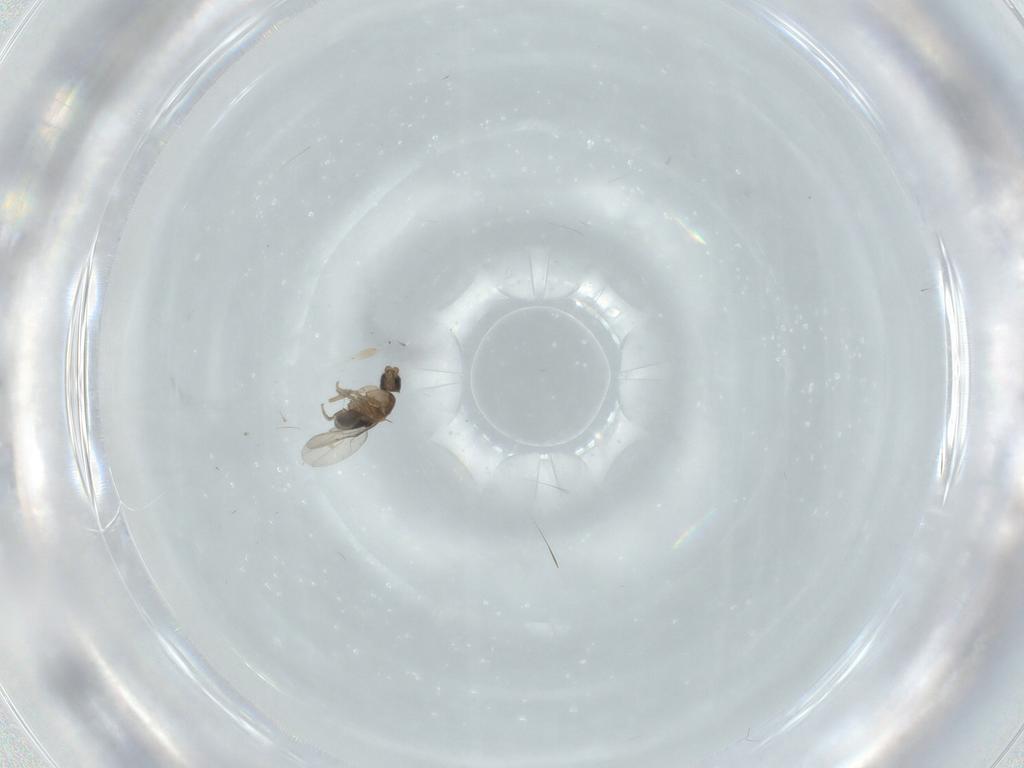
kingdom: Animalia
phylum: Arthropoda
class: Insecta
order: Diptera
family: Phoridae
